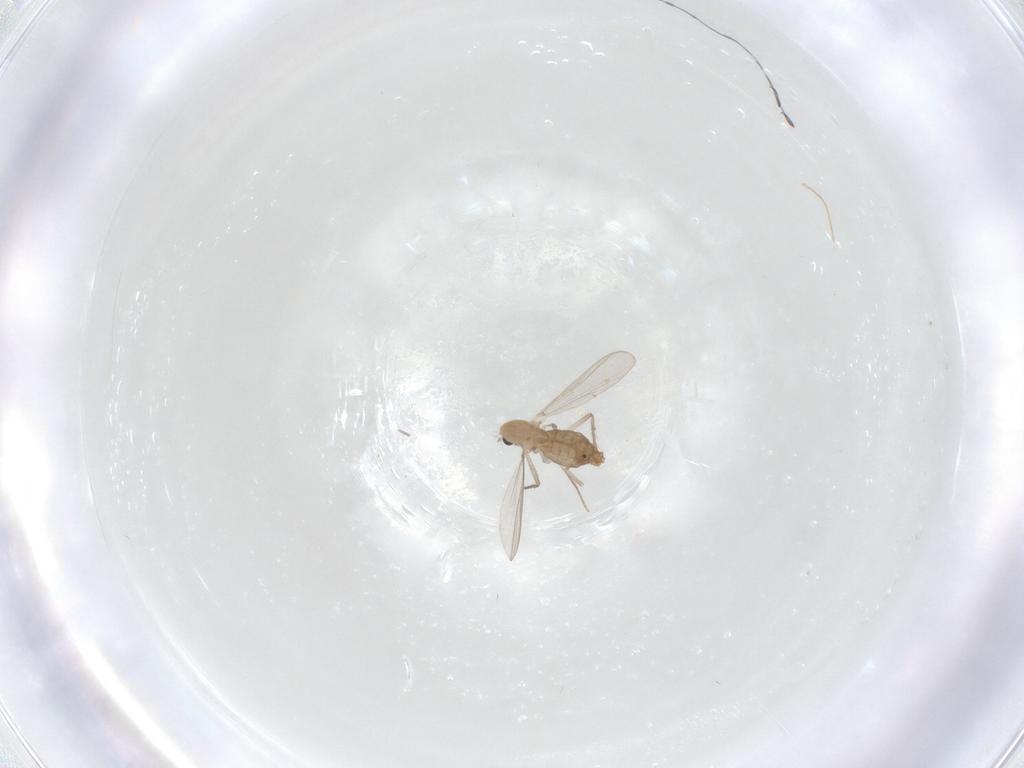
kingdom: Animalia
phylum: Arthropoda
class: Insecta
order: Diptera
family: Chironomidae
